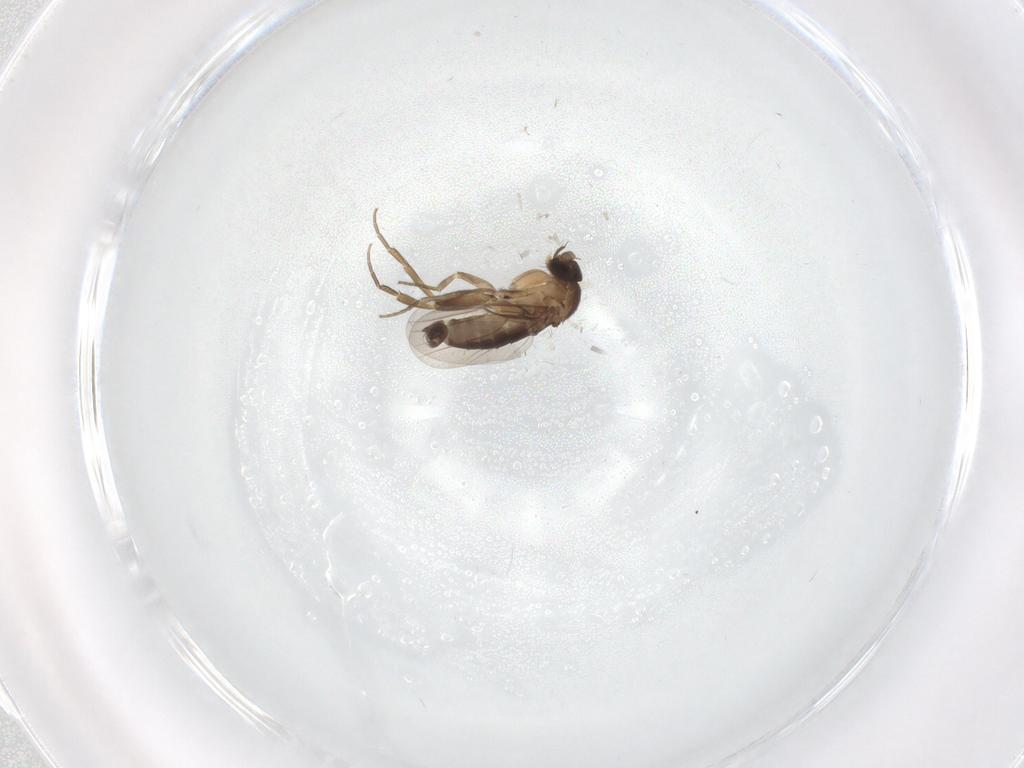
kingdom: Animalia
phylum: Arthropoda
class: Insecta
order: Diptera
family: Phoridae
